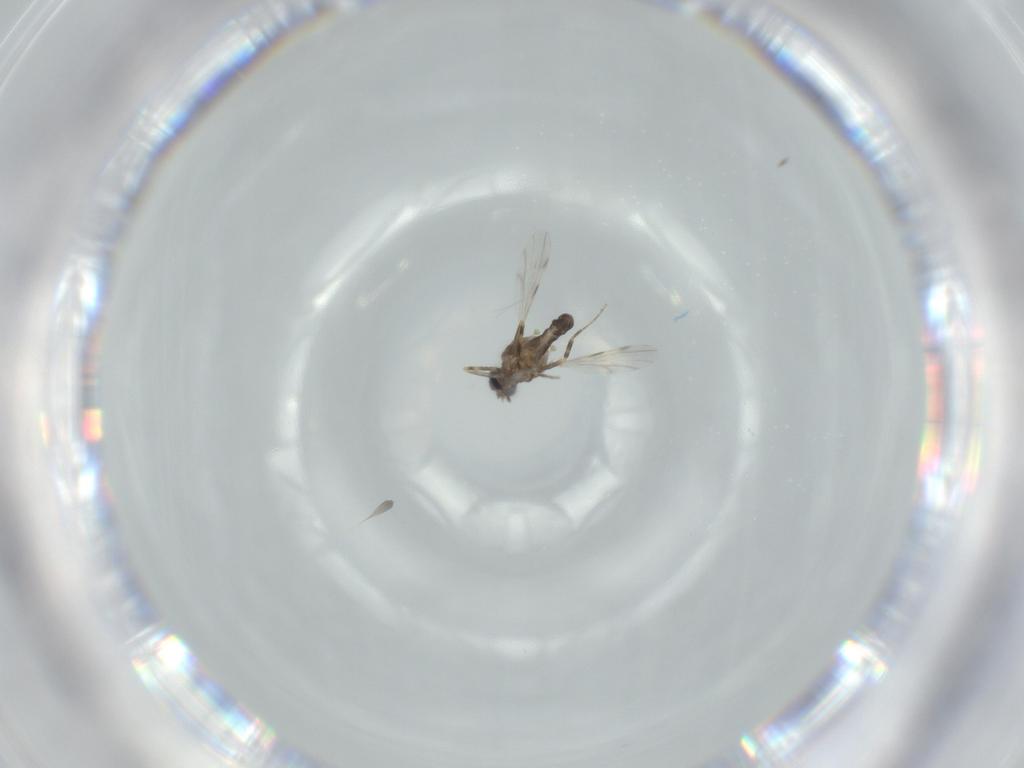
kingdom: Animalia
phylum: Arthropoda
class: Insecta
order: Diptera
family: Ceratopogonidae
